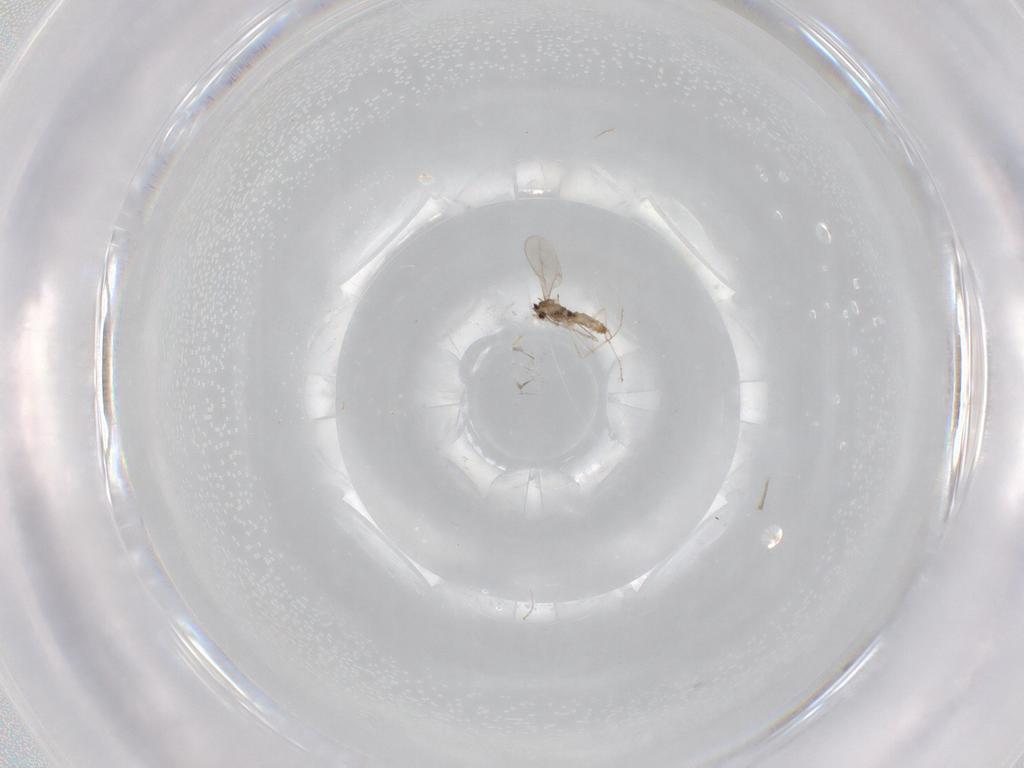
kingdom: Animalia
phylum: Arthropoda
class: Insecta
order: Diptera
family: Cecidomyiidae
